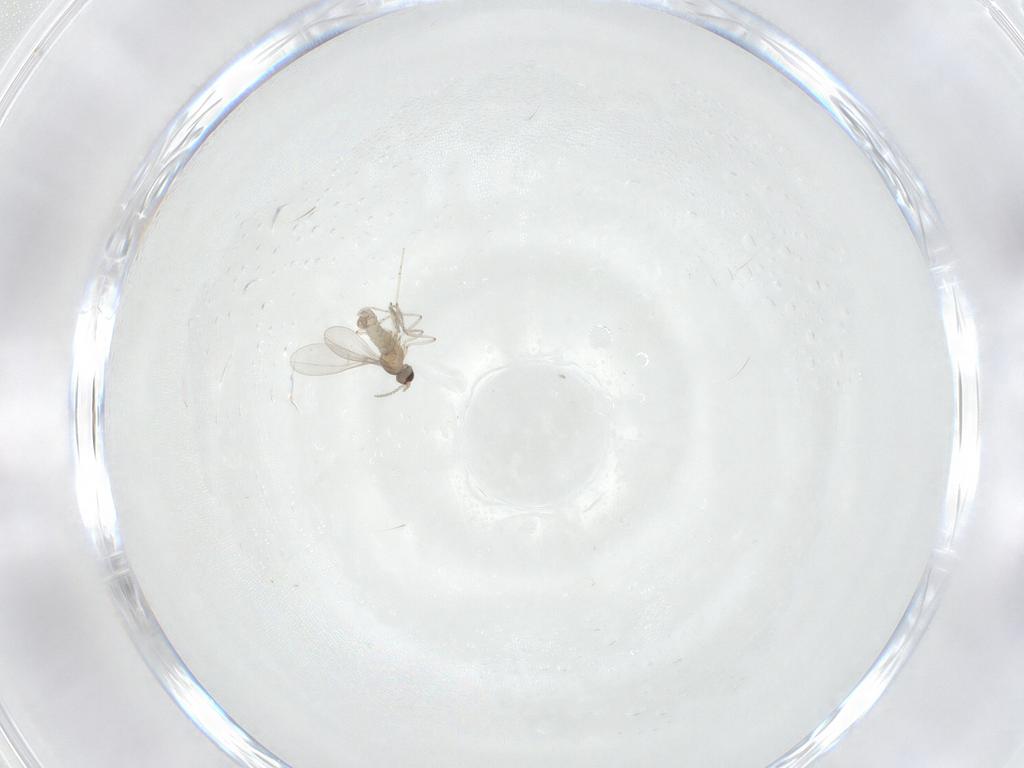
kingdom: Animalia
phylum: Arthropoda
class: Insecta
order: Diptera
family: Cecidomyiidae
